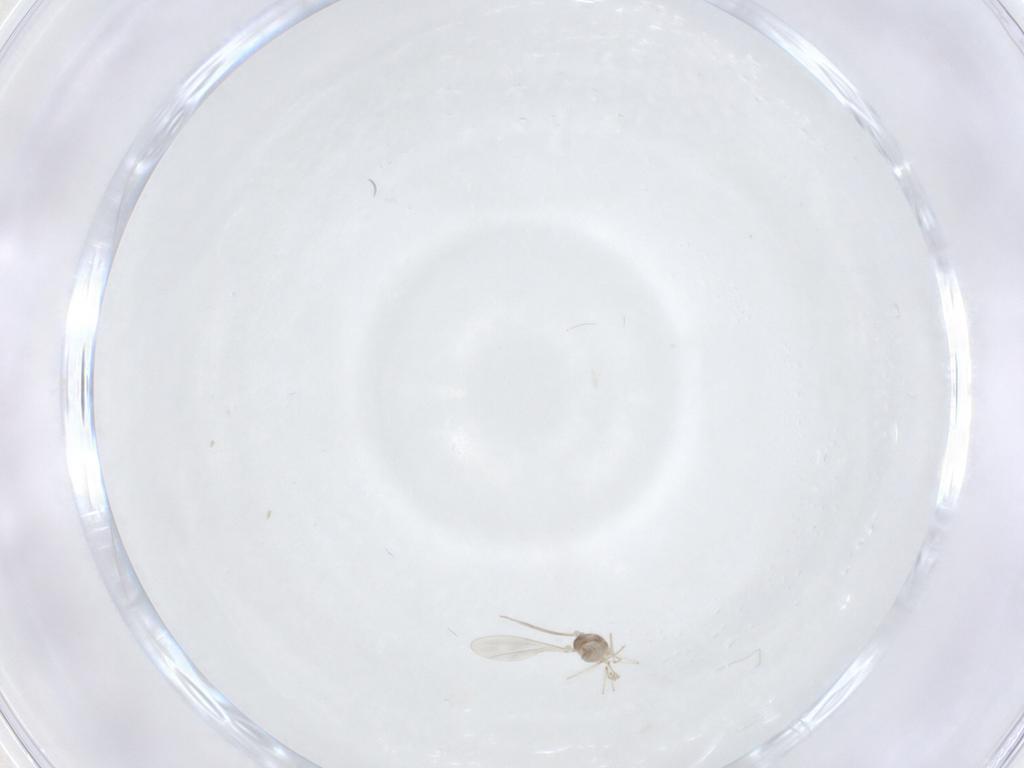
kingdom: Animalia
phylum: Arthropoda
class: Insecta
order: Diptera
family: Cecidomyiidae
